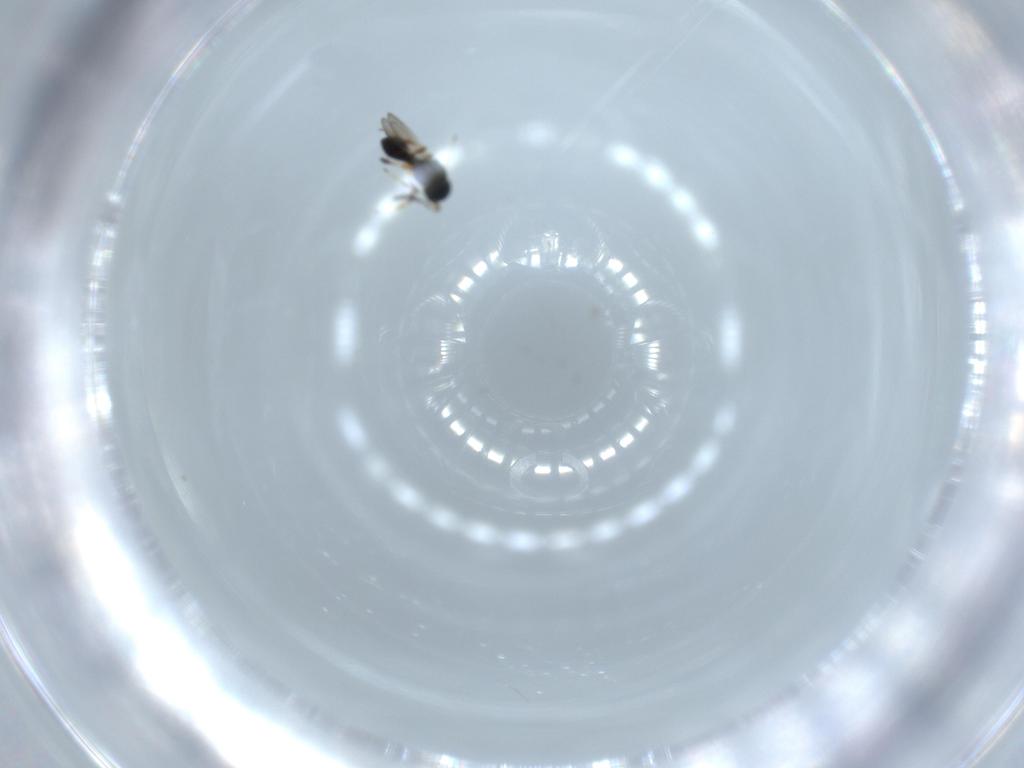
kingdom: Animalia
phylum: Arthropoda
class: Insecta
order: Hymenoptera
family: Platygastridae
